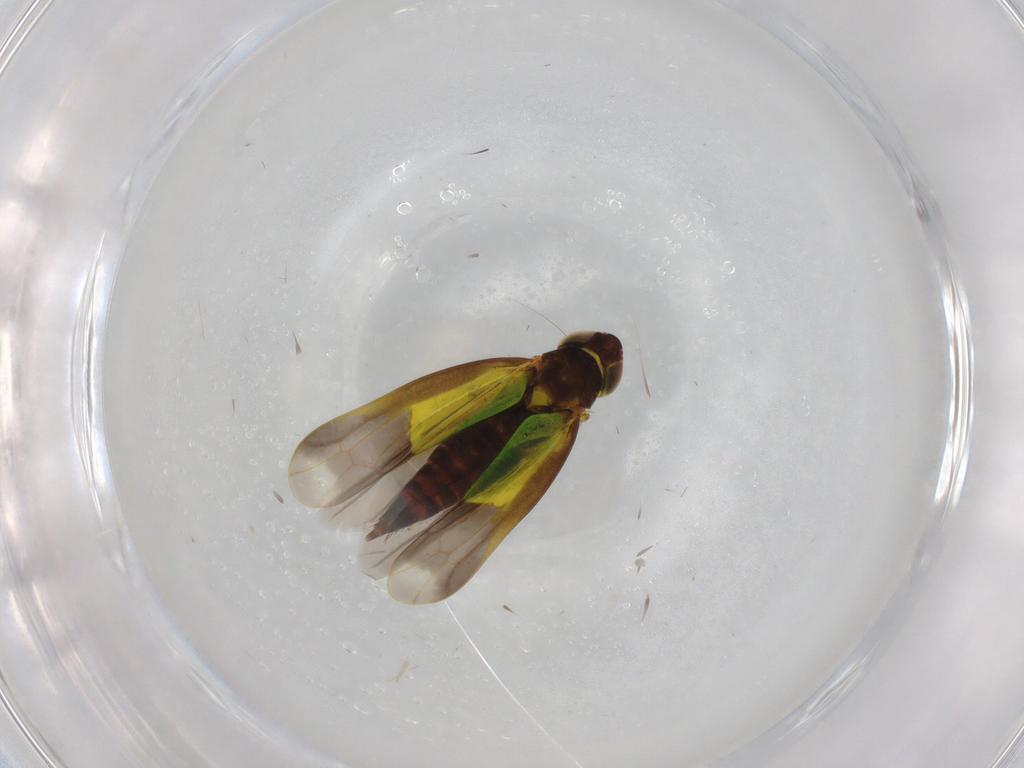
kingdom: Animalia
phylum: Arthropoda
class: Insecta
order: Hemiptera
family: Cicadellidae
